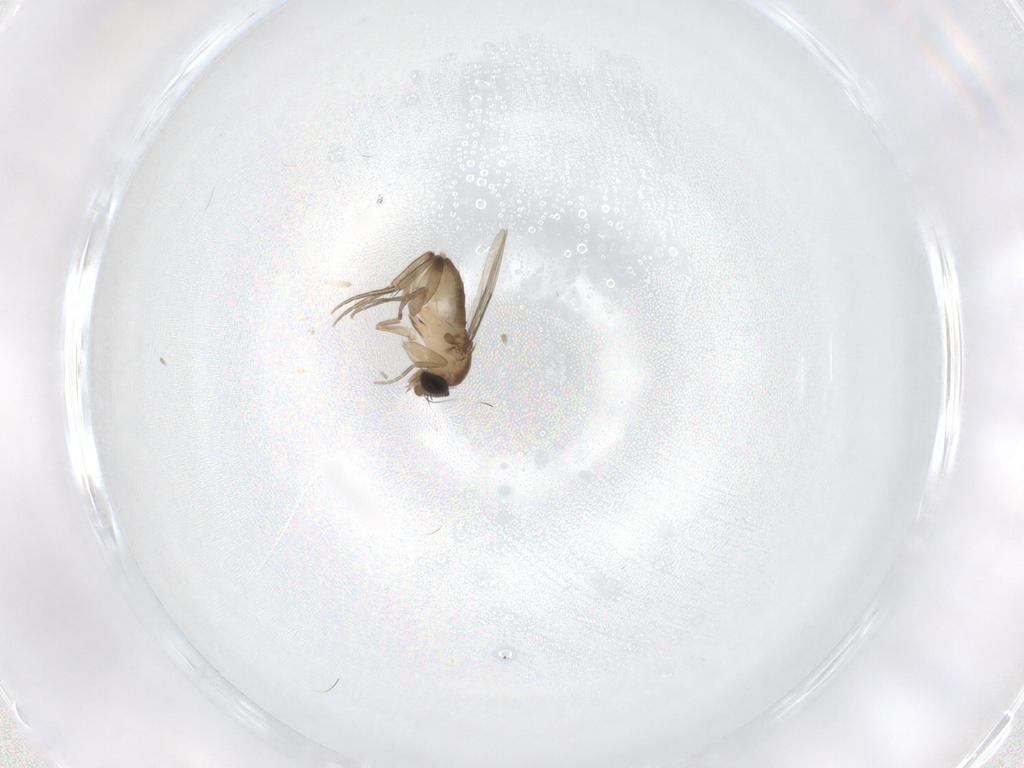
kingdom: Animalia
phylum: Arthropoda
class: Insecta
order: Diptera
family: Phoridae
